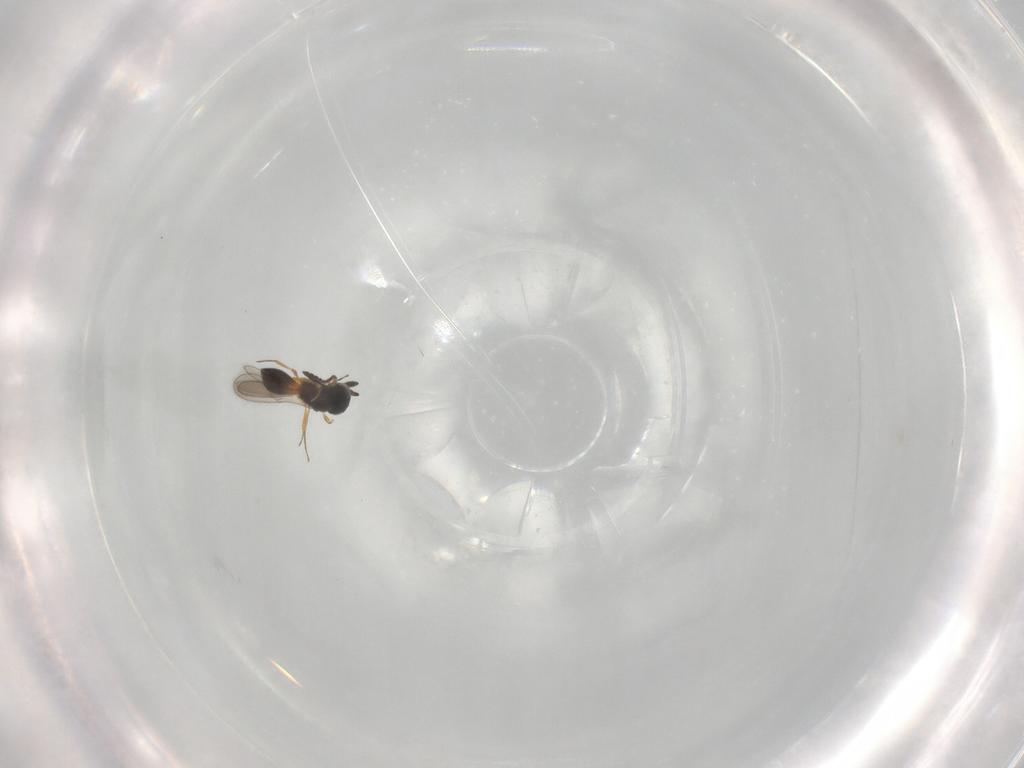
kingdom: Animalia
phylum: Arthropoda
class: Insecta
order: Hymenoptera
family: Scelionidae
